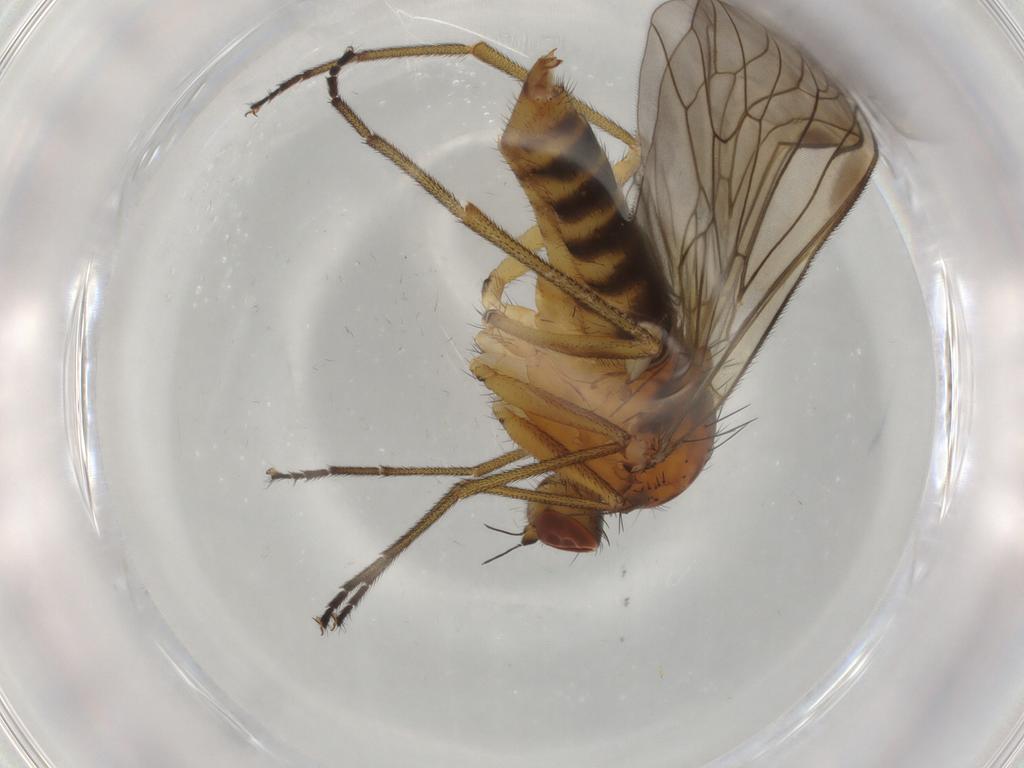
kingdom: Animalia
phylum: Arthropoda
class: Insecta
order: Diptera
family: Brachystomatidae
